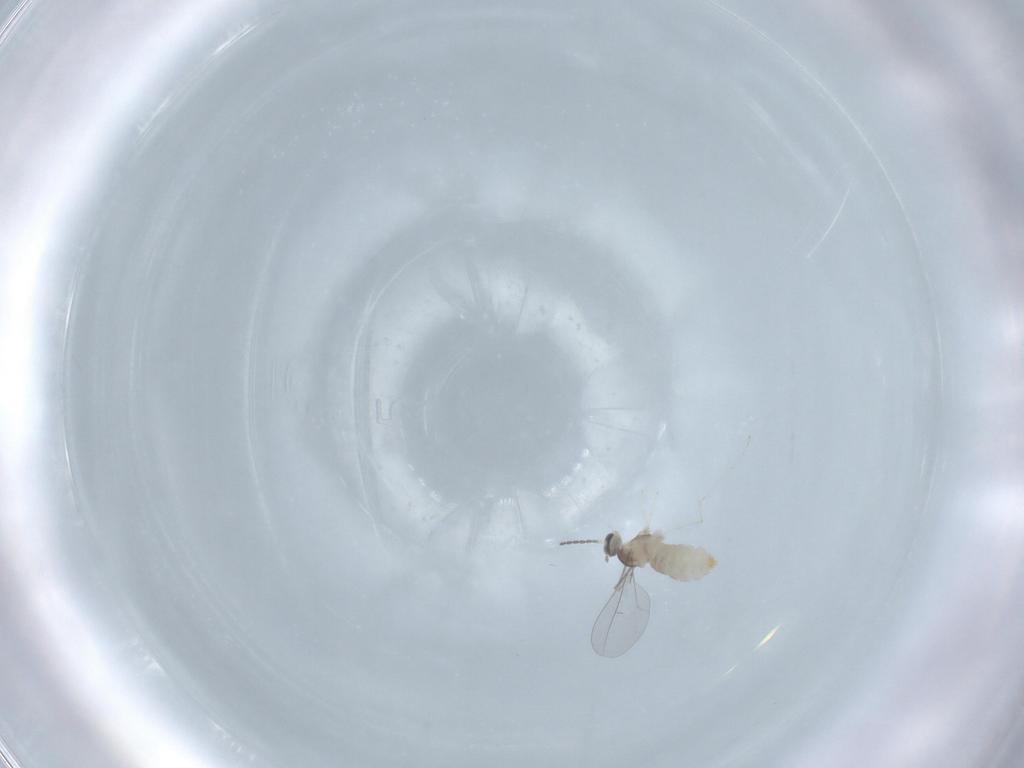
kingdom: Animalia
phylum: Arthropoda
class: Insecta
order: Diptera
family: Cecidomyiidae
